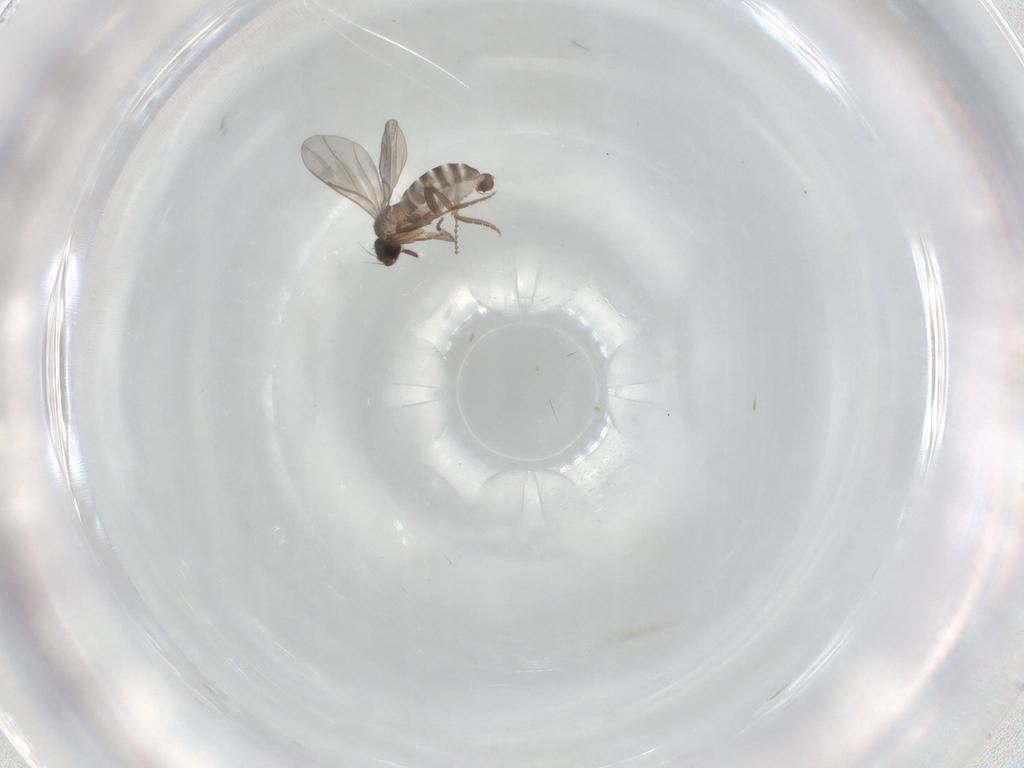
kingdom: Animalia
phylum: Arthropoda
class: Insecta
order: Diptera
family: Cecidomyiidae
